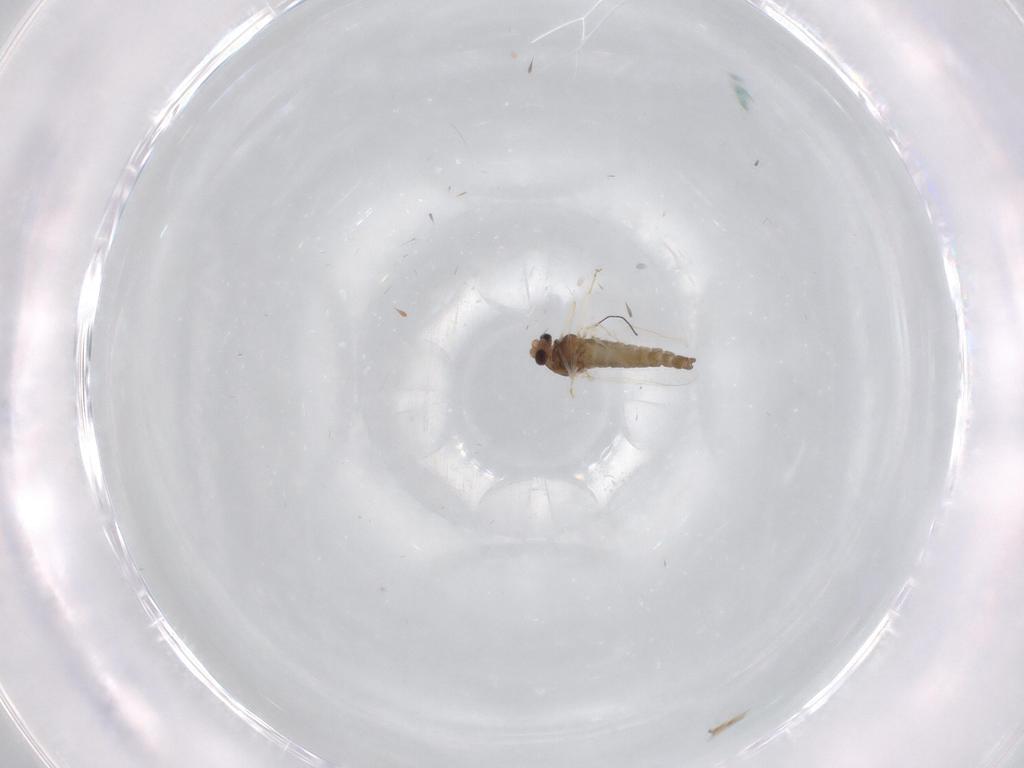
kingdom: Animalia
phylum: Arthropoda
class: Insecta
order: Diptera
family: Chironomidae
